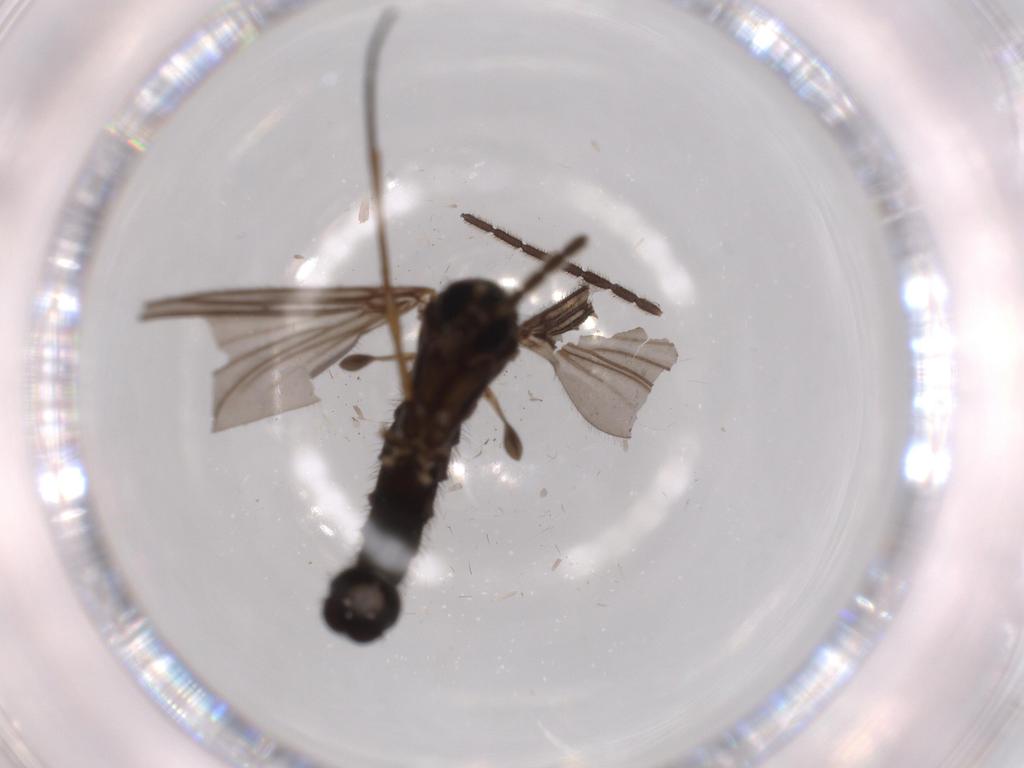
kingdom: Animalia
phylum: Arthropoda
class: Insecta
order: Diptera
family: Sciaridae
